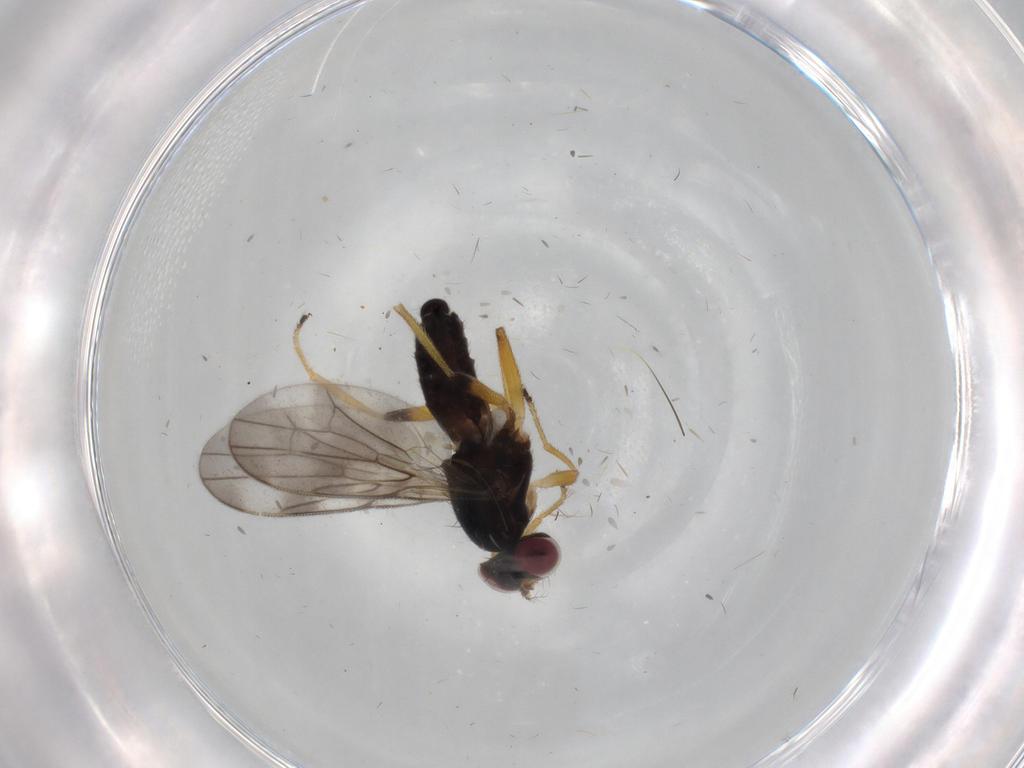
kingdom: Animalia
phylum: Arthropoda
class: Insecta
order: Diptera
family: Periscelididae
